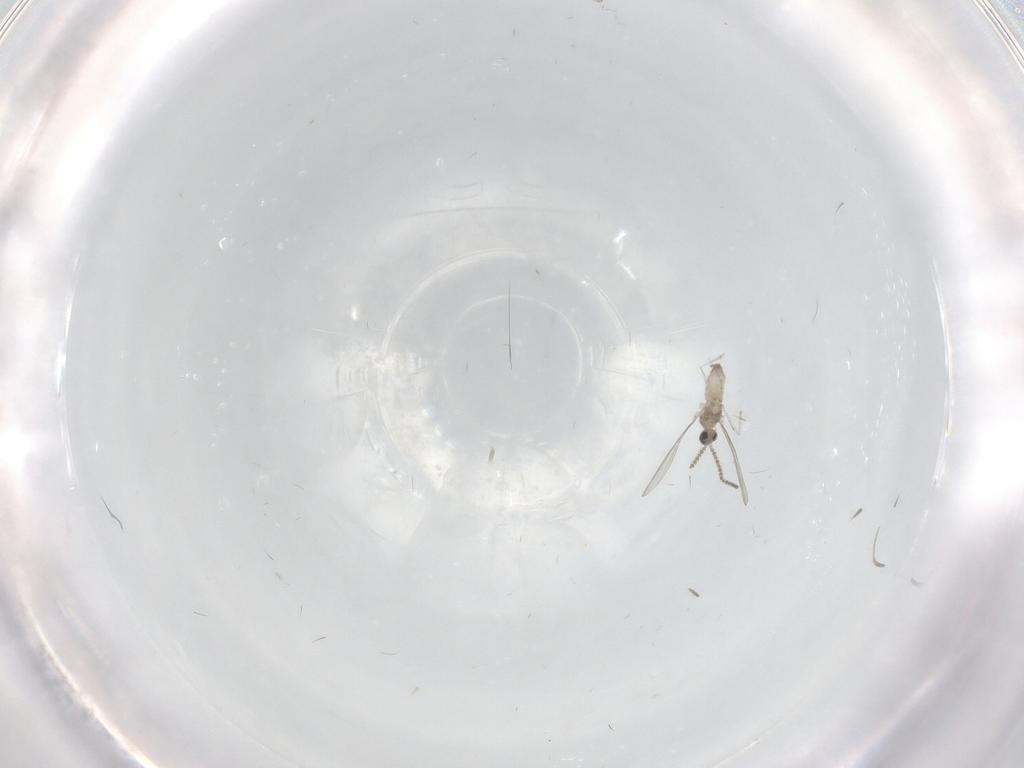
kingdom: Animalia
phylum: Arthropoda
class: Insecta
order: Diptera
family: Cecidomyiidae
